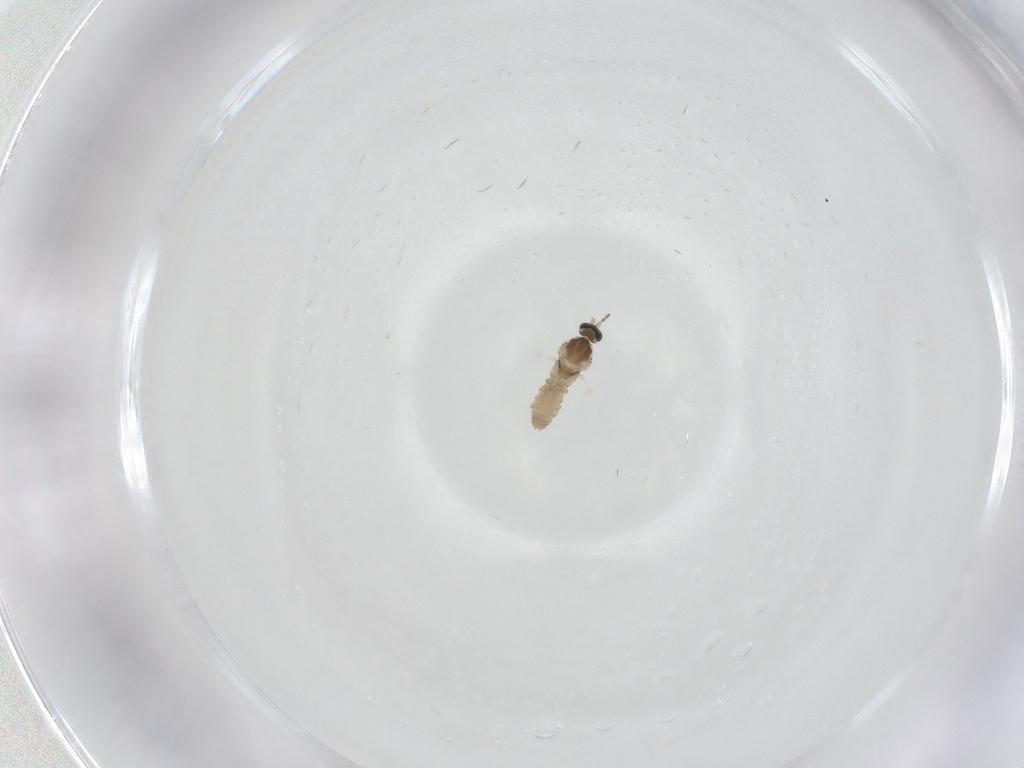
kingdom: Animalia
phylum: Arthropoda
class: Insecta
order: Diptera
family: Cecidomyiidae
